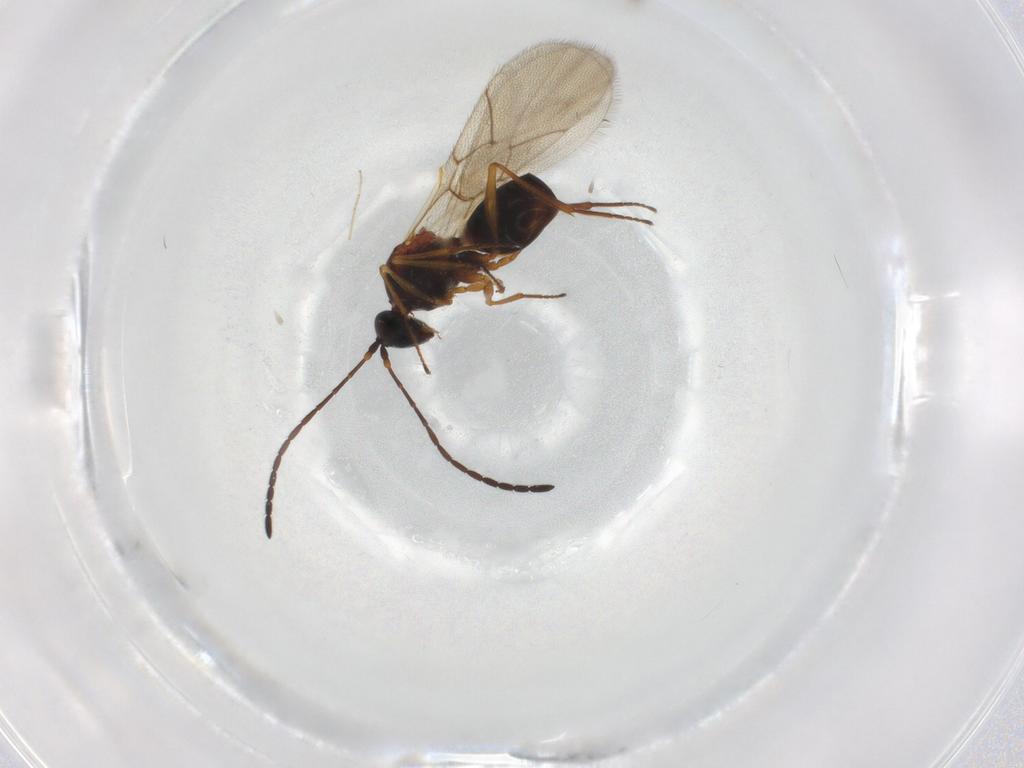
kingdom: Animalia
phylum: Arthropoda
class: Insecta
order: Hymenoptera
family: Figitidae
